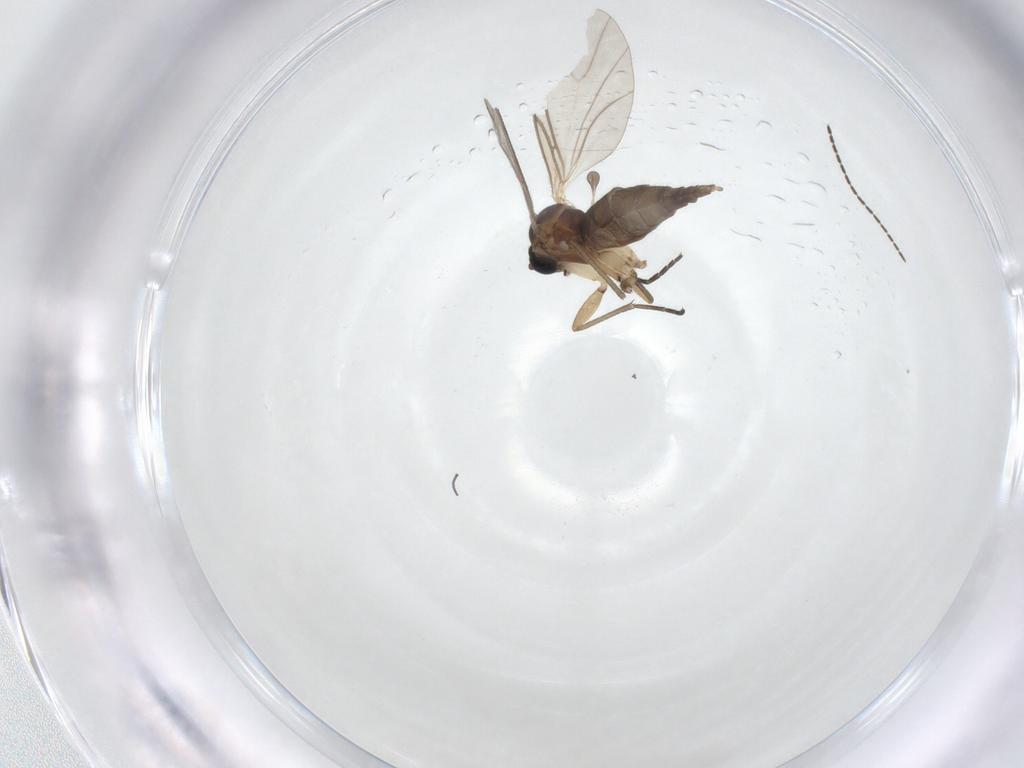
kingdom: Animalia
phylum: Arthropoda
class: Insecta
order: Diptera
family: Sciaridae
